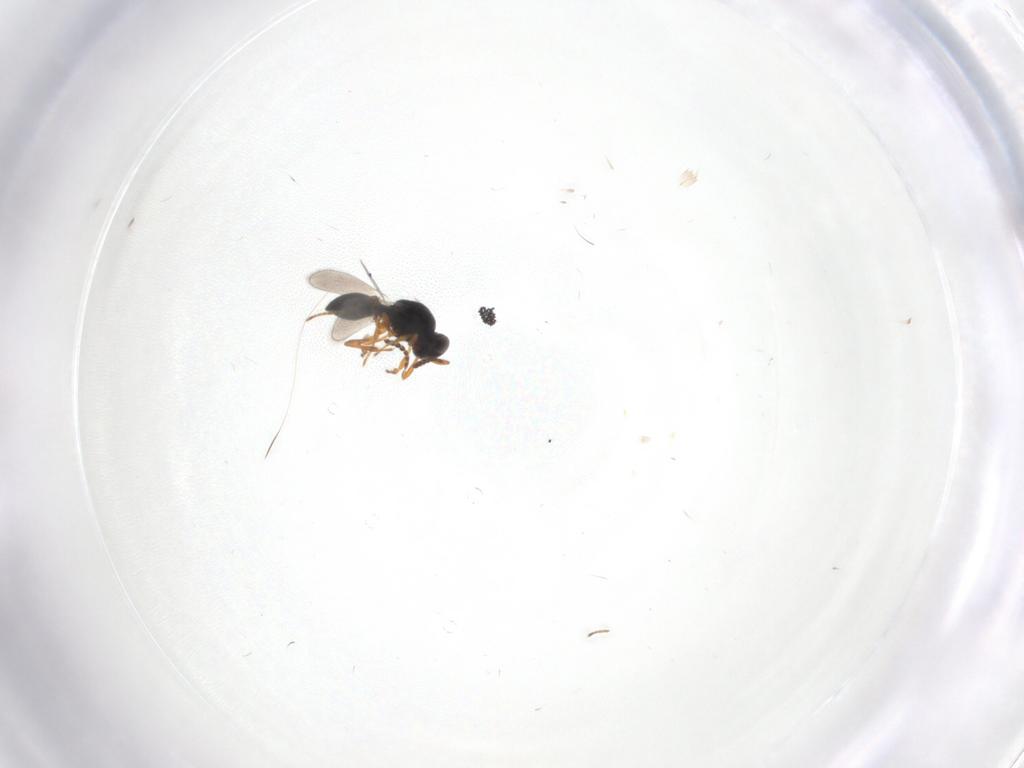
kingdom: Animalia
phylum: Arthropoda
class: Insecta
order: Hymenoptera
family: Platygastridae
